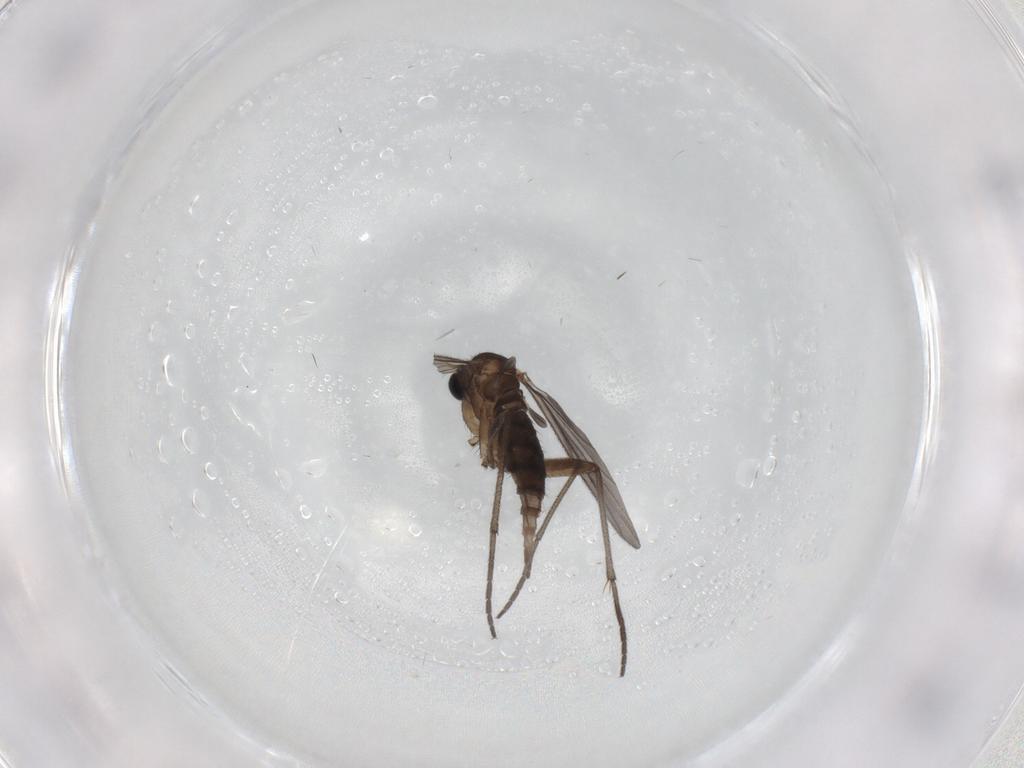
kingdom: Animalia
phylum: Arthropoda
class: Insecta
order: Diptera
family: Sciaridae
